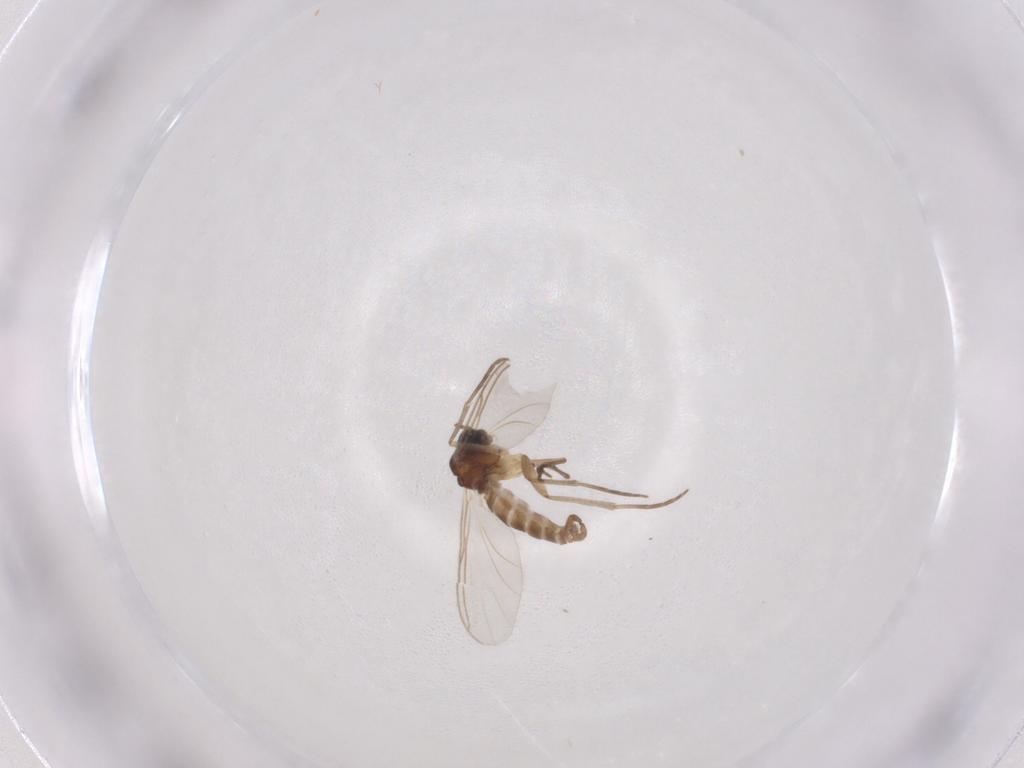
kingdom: Animalia
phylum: Arthropoda
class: Insecta
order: Diptera
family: Sciaridae
